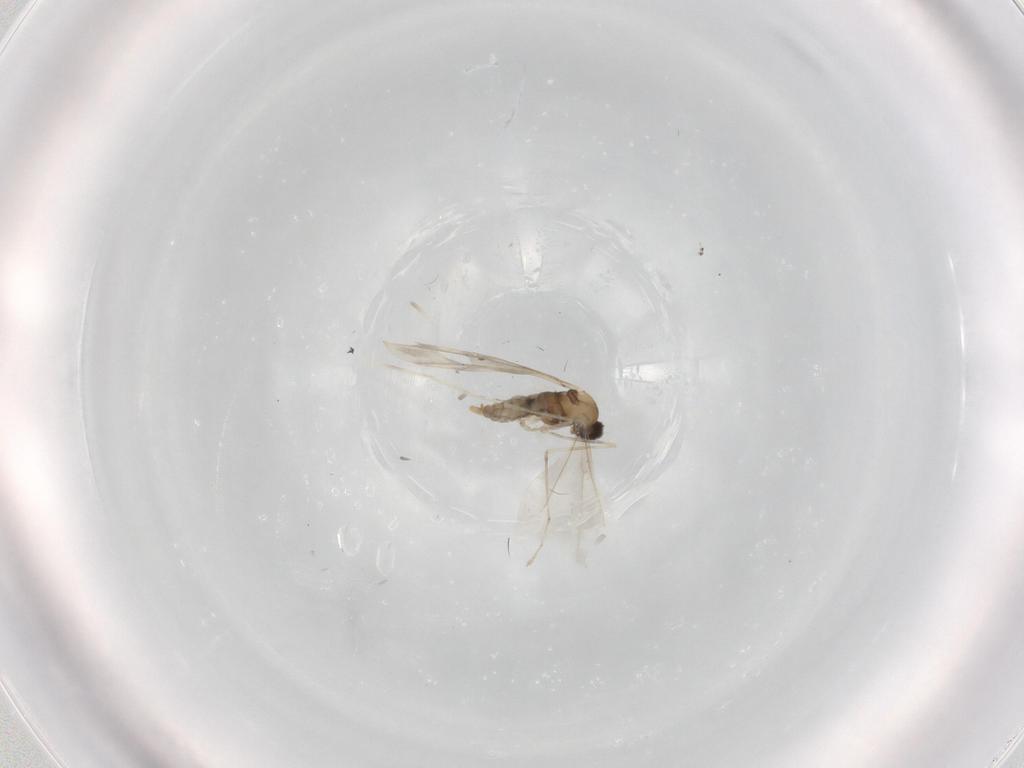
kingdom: Animalia
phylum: Arthropoda
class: Insecta
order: Diptera
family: Cecidomyiidae
